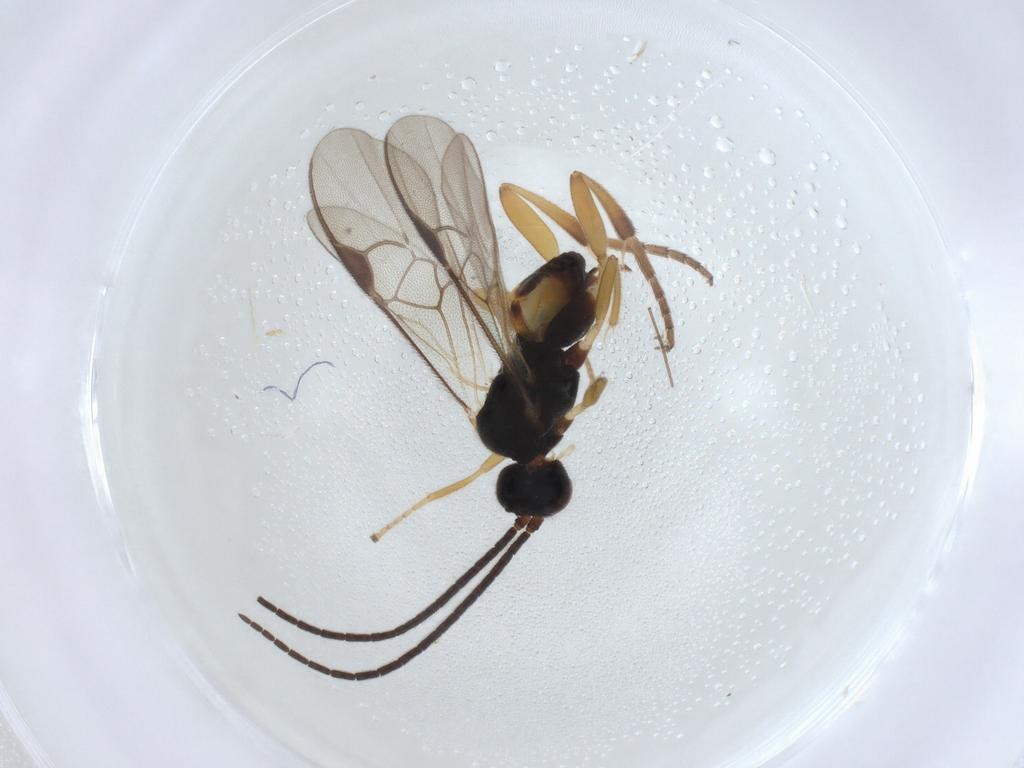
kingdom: Animalia
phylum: Arthropoda
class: Insecta
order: Hymenoptera
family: Braconidae
